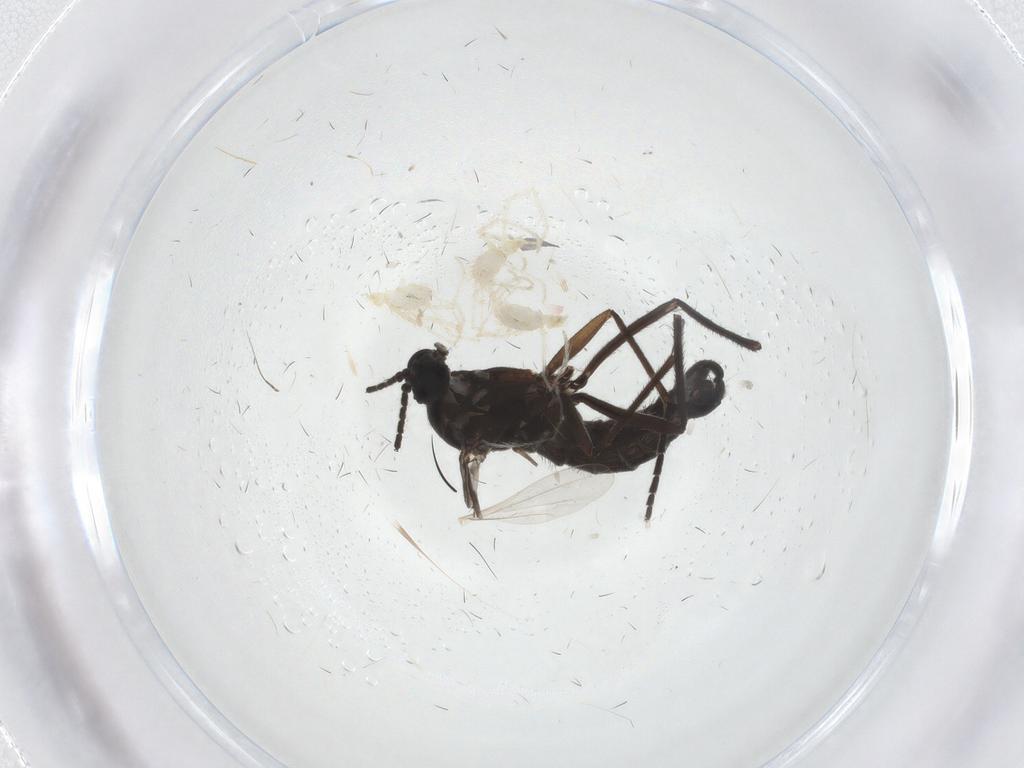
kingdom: Animalia
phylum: Arthropoda
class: Insecta
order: Diptera
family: Sciaridae
